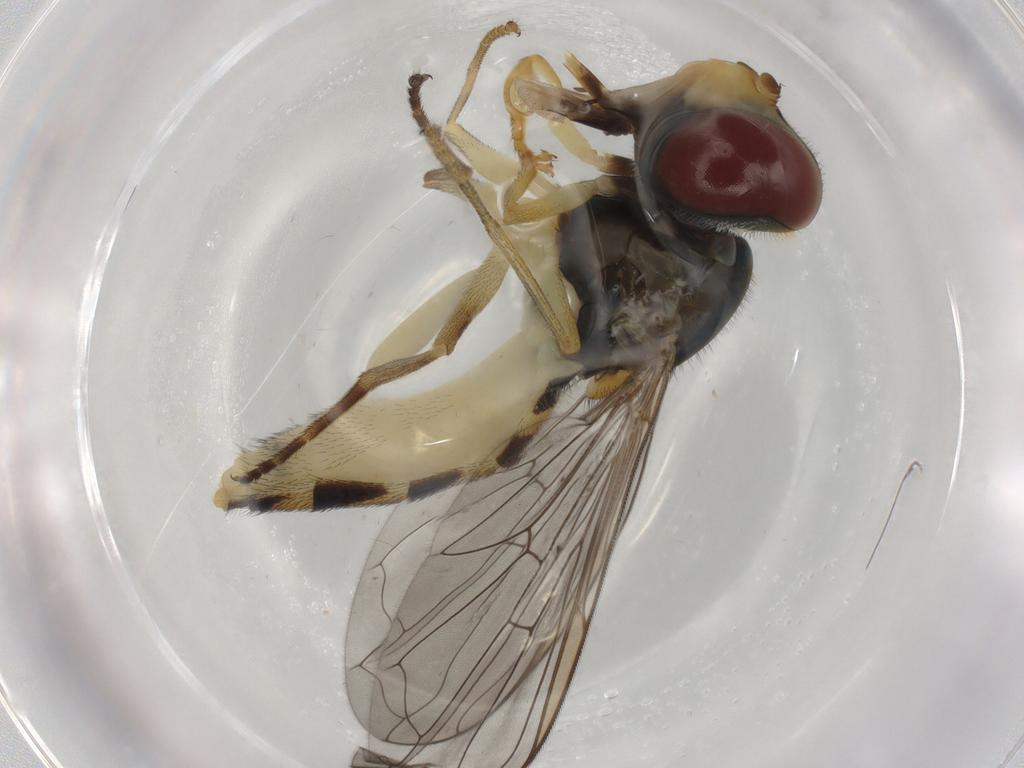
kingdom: Animalia
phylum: Arthropoda
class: Insecta
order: Diptera
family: Syrphidae
